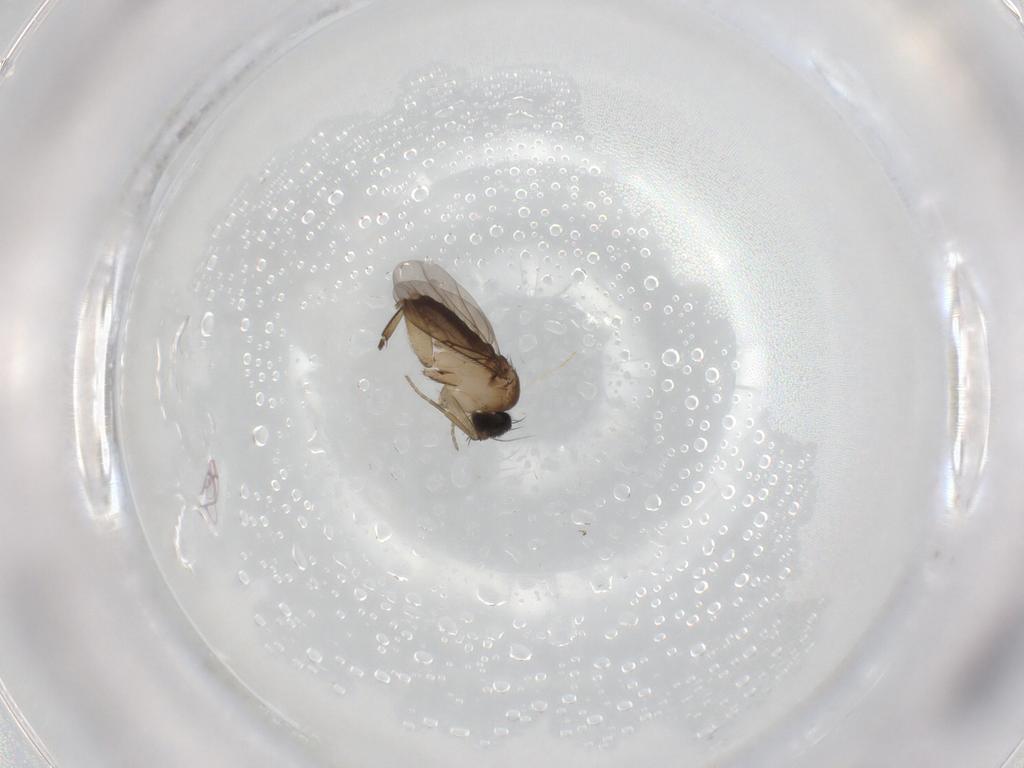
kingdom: Animalia
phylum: Arthropoda
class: Insecta
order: Diptera
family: Phoridae
